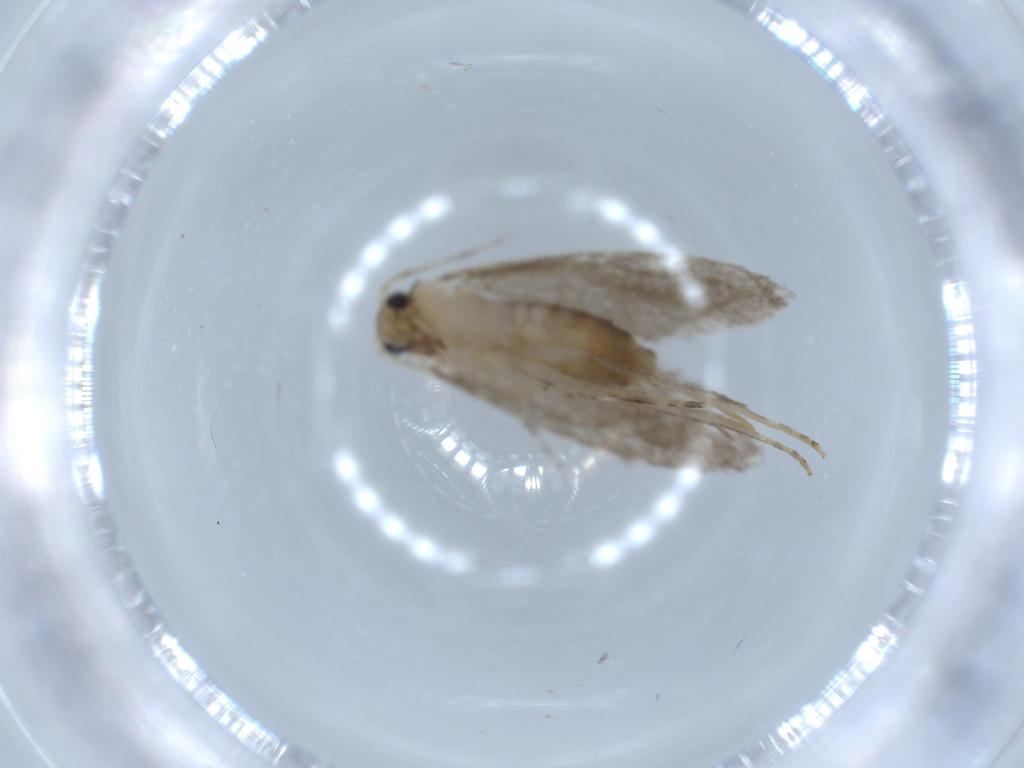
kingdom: Animalia
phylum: Arthropoda
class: Insecta
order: Lepidoptera
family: Tineidae
